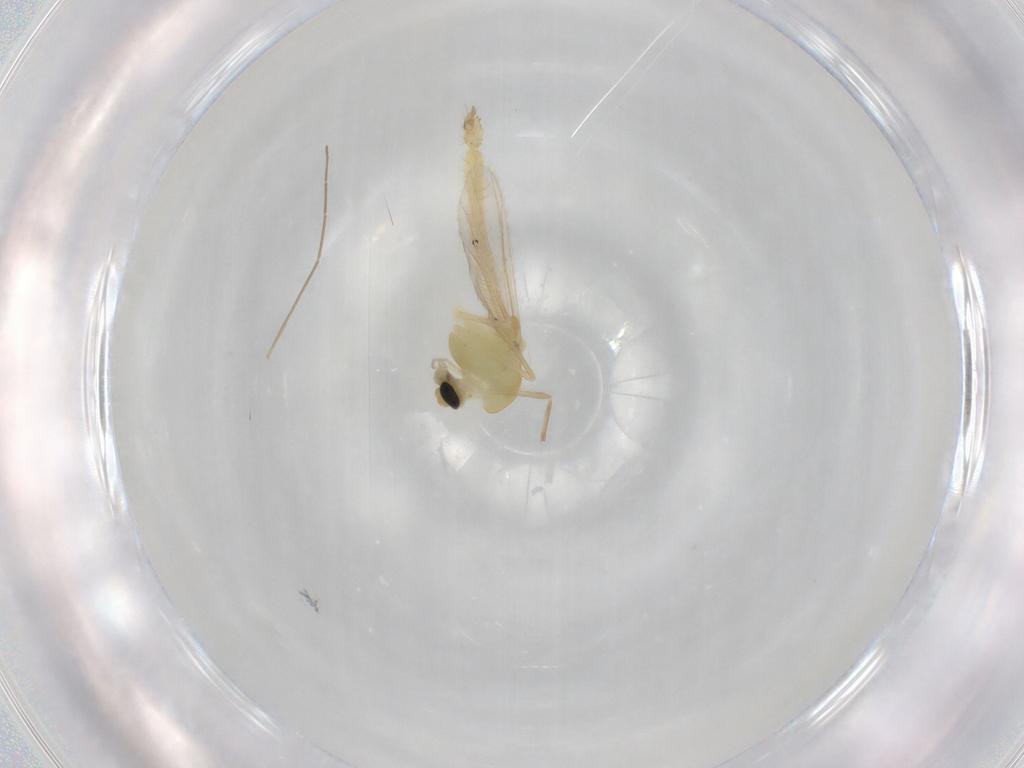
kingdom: Animalia
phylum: Arthropoda
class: Insecta
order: Diptera
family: Chironomidae
